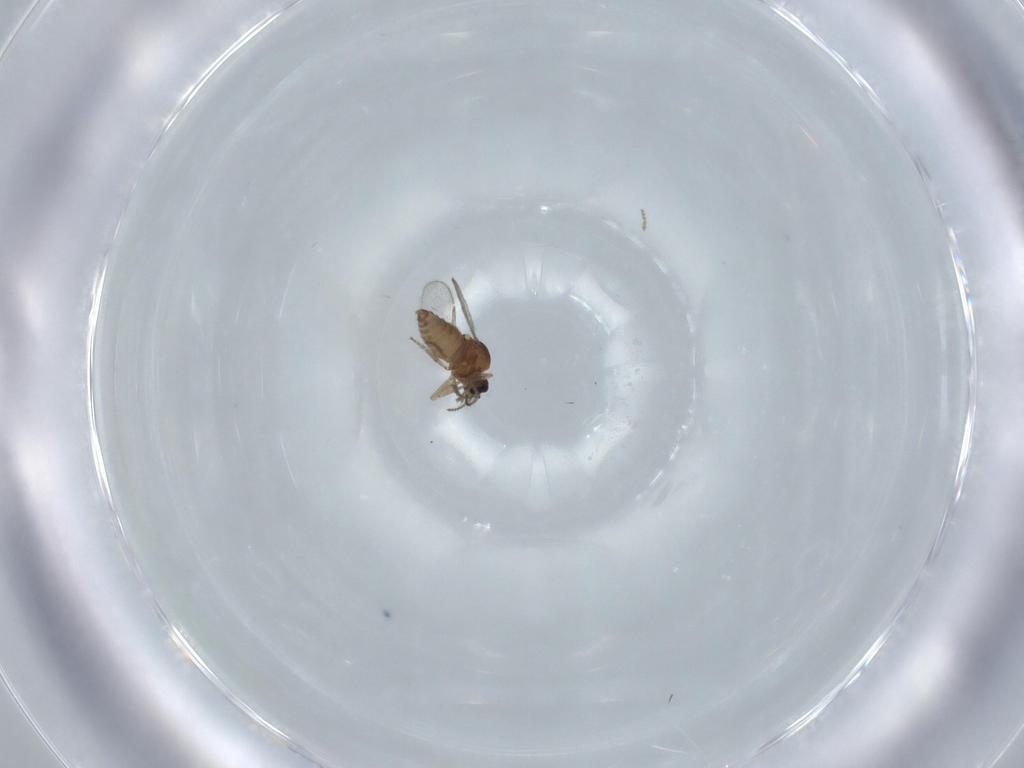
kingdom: Animalia
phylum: Arthropoda
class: Insecta
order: Diptera
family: Ceratopogonidae
